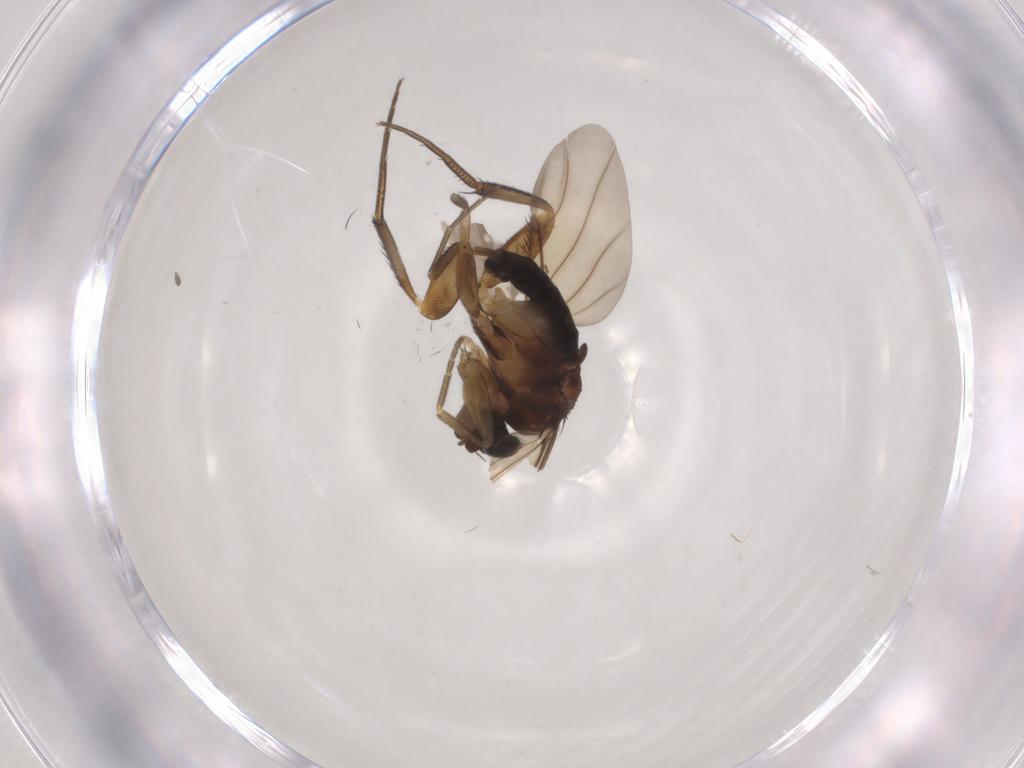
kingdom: Animalia
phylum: Arthropoda
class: Insecta
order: Diptera
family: Phoridae
